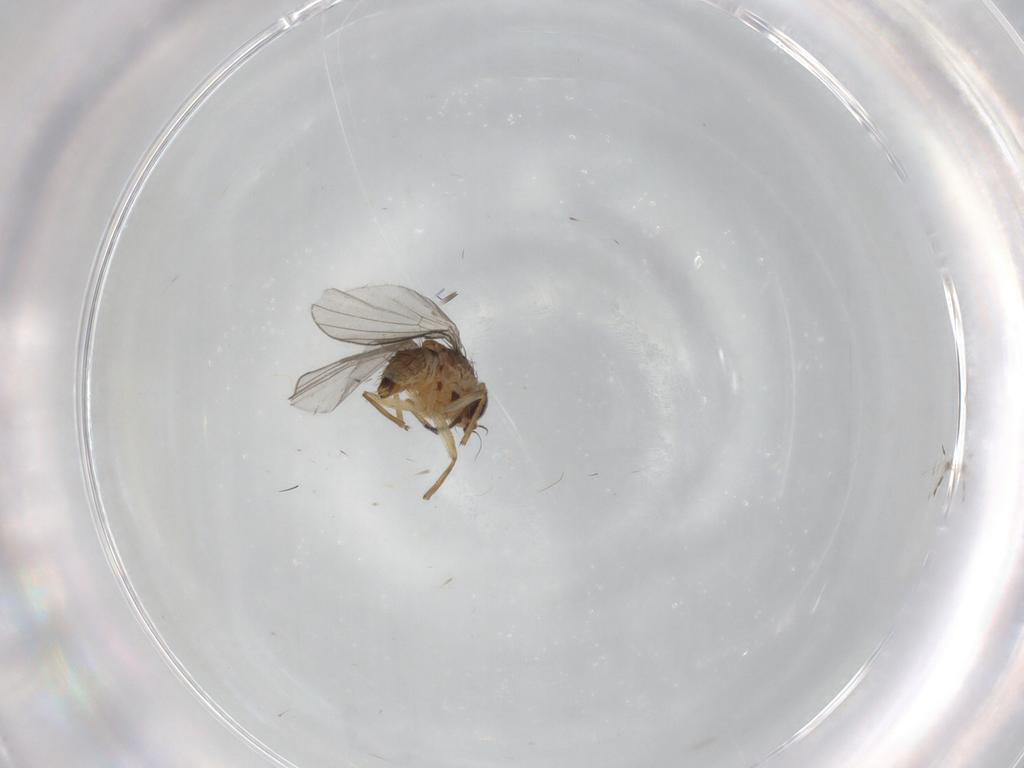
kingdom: Animalia
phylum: Arthropoda
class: Insecta
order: Diptera
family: Agromyzidae
